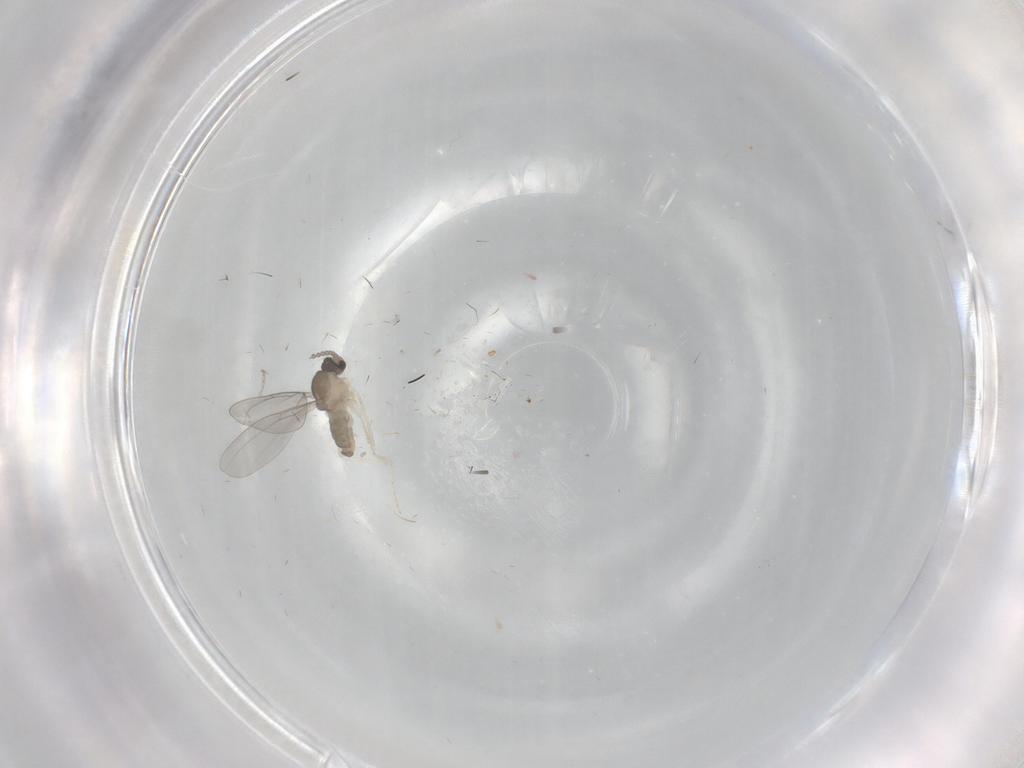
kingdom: Animalia
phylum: Arthropoda
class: Insecta
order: Diptera
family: Cecidomyiidae
